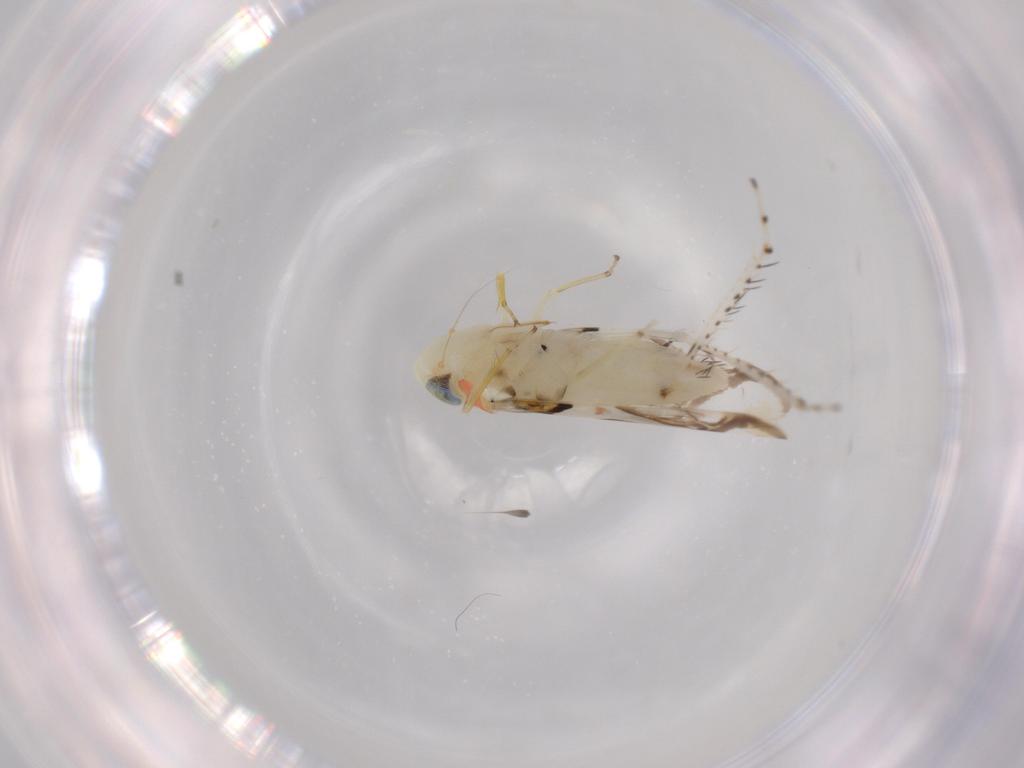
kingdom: Animalia
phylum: Arthropoda
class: Insecta
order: Hemiptera
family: Cicadellidae
